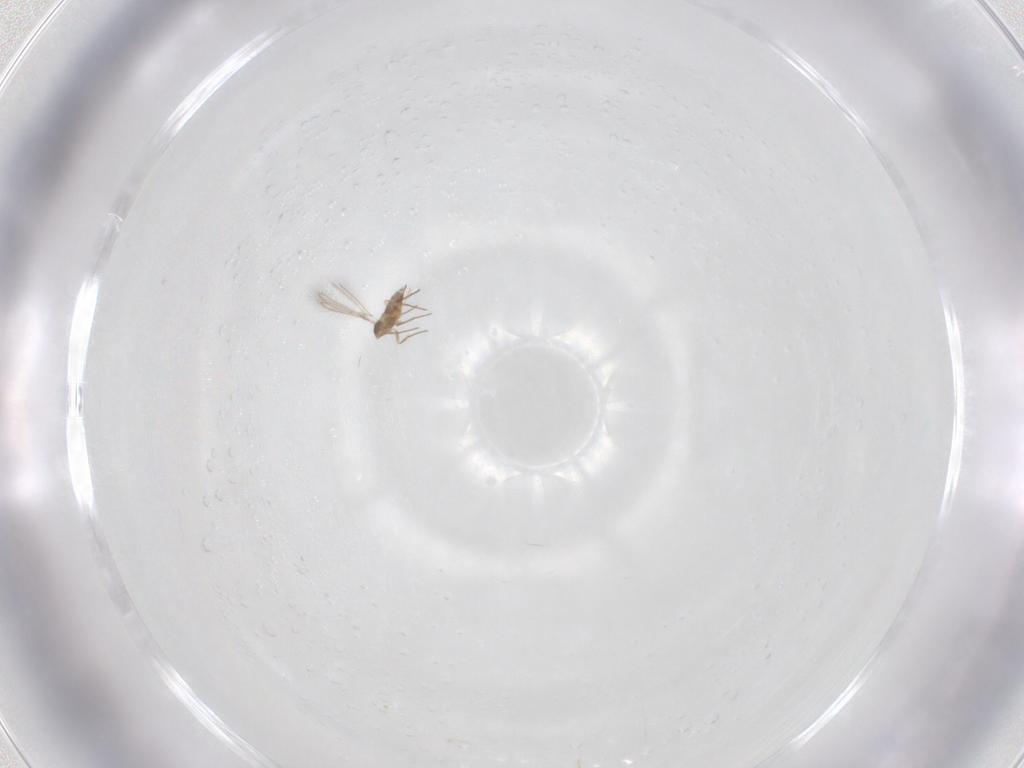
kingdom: Animalia
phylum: Arthropoda
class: Insecta
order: Hymenoptera
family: Mymaridae
